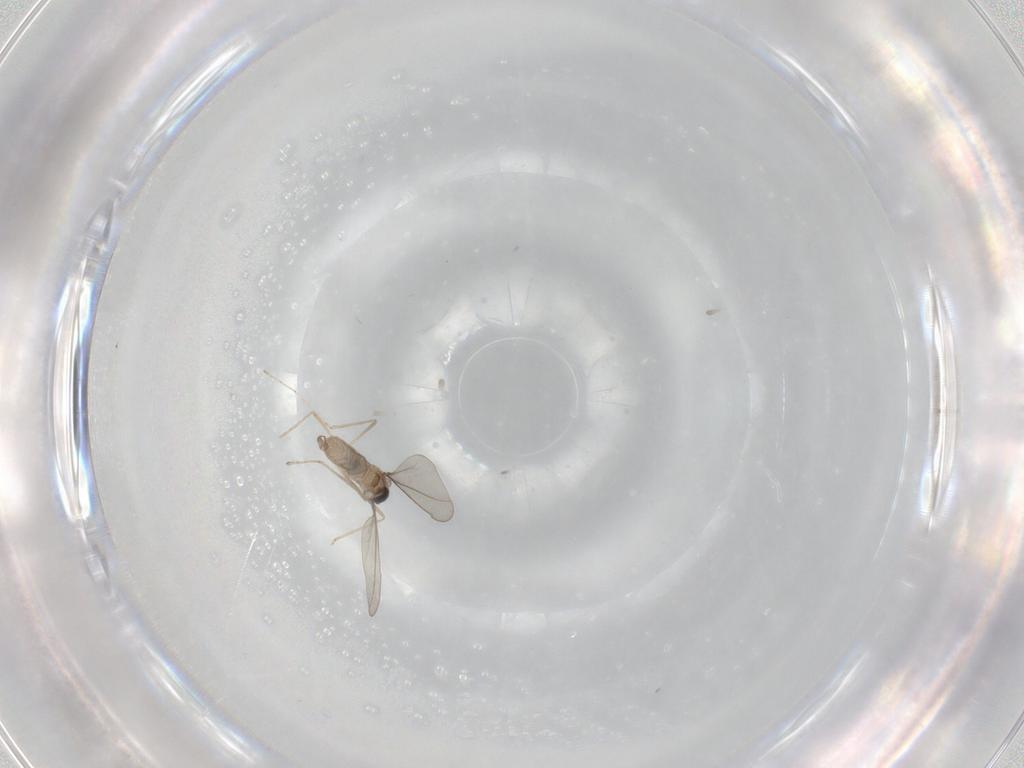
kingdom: Animalia
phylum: Arthropoda
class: Insecta
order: Diptera
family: Cecidomyiidae
